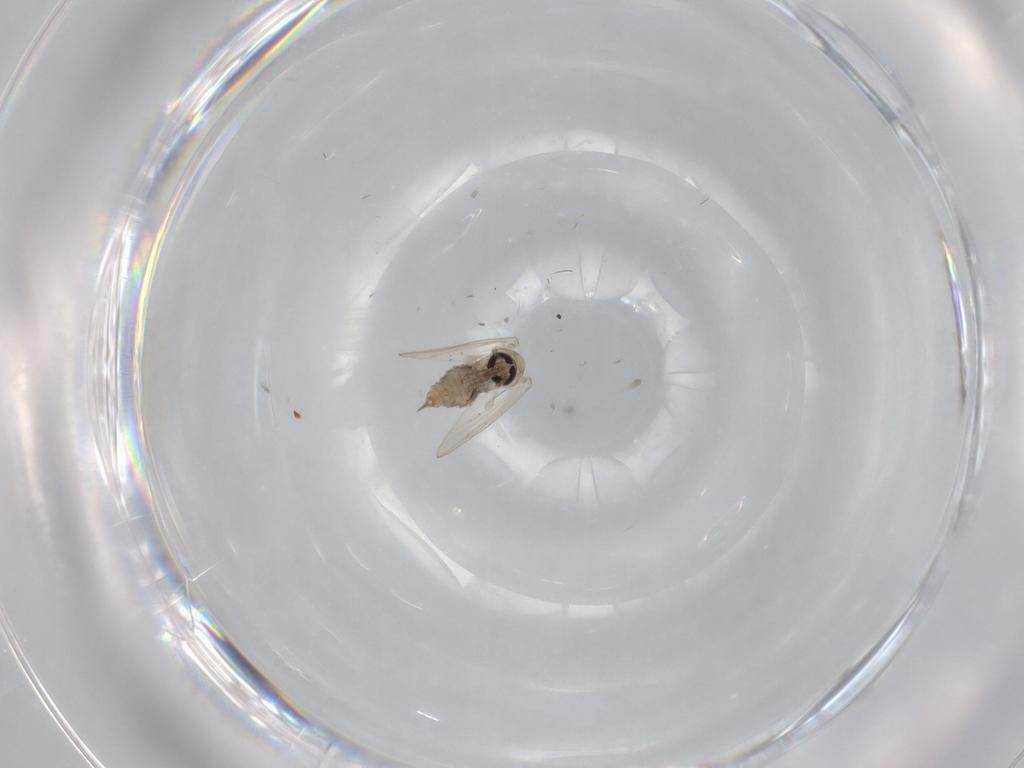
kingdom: Animalia
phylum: Arthropoda
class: Insecta
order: Diptera
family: Psychodidae
